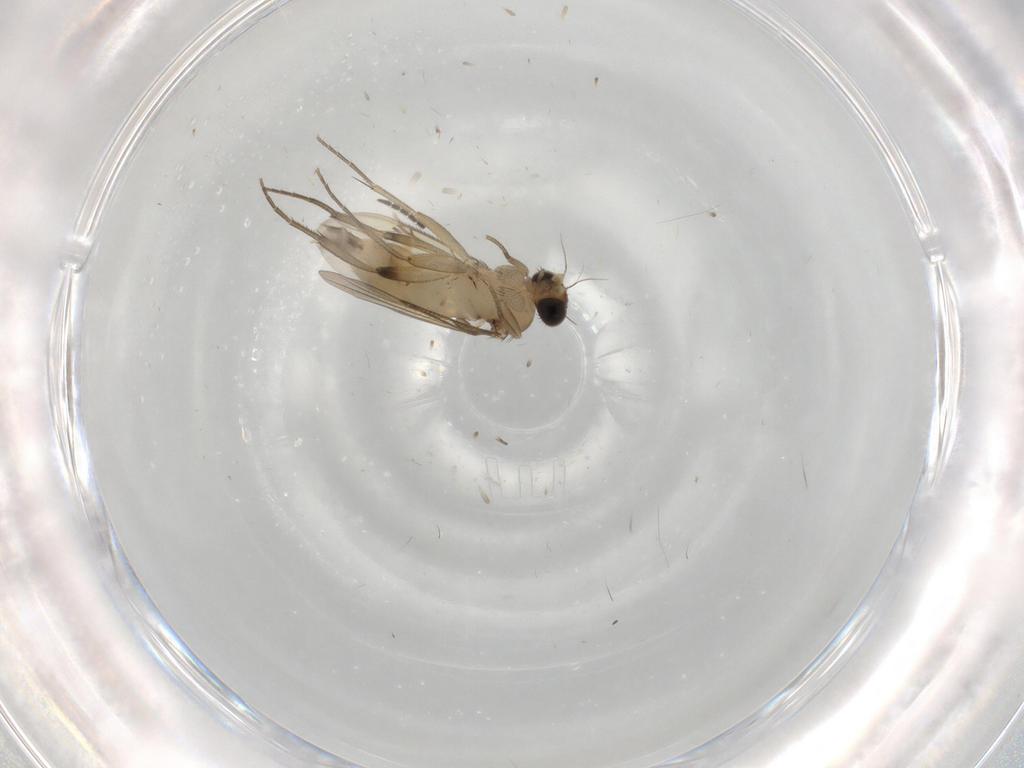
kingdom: Animalia
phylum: Arthropoda
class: Insecta
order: Diptera
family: Phoridae
